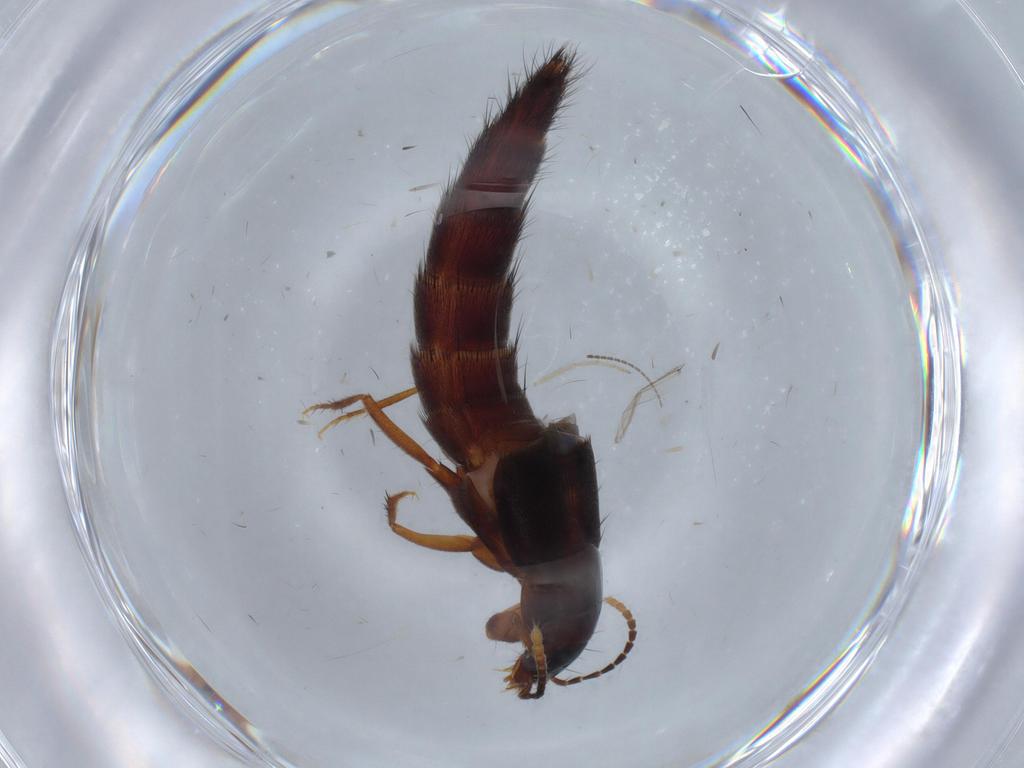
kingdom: Animalia
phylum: Arthropoda
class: Insecta
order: Coleoptera
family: Staphylinidae
